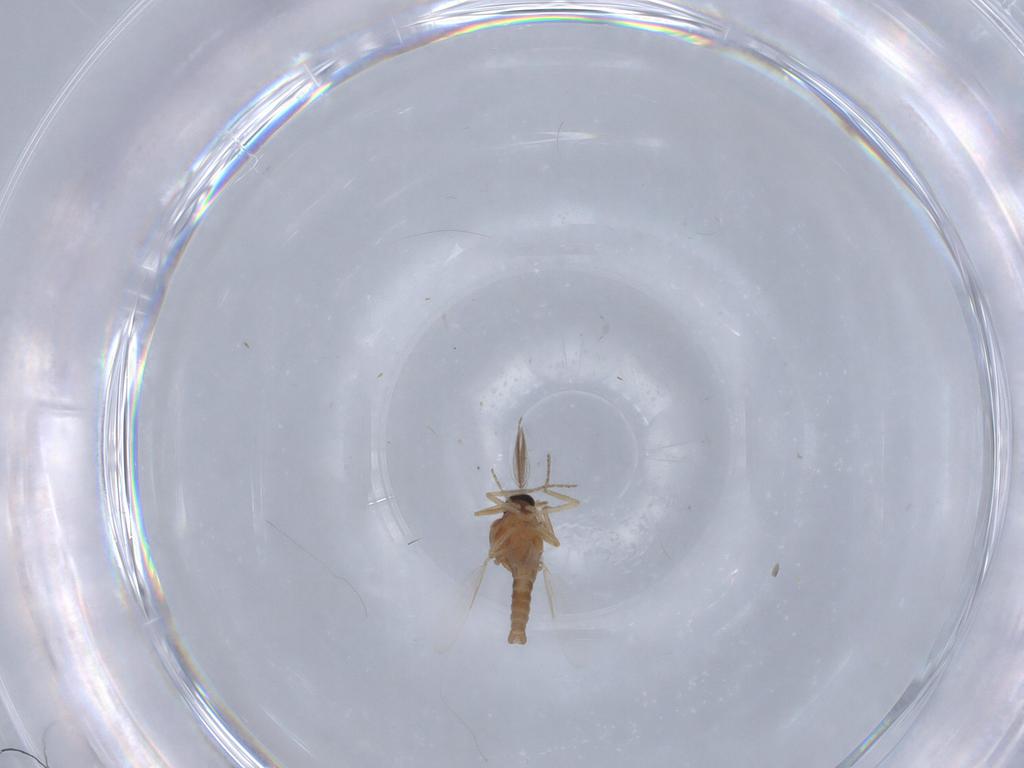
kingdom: Animalia
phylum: Arthropoda
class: Insecta
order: Diptera
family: Ceratopogonidae
